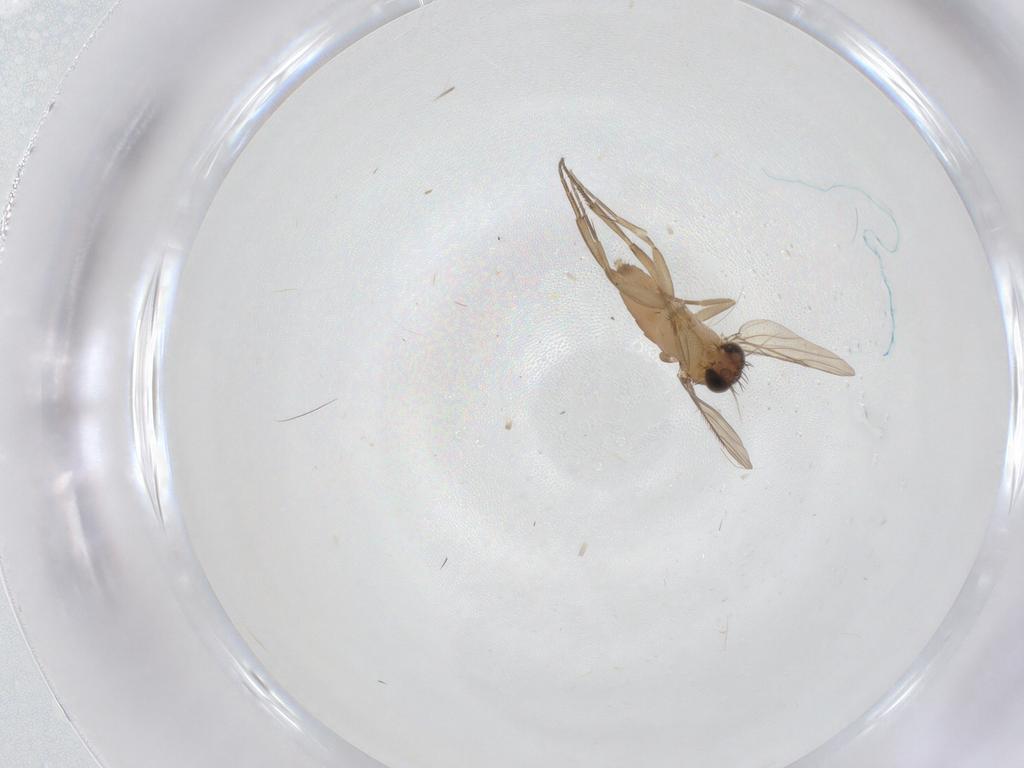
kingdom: Animalia
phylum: Arthropoda
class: Insecta
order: Diptera
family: Phoridae
